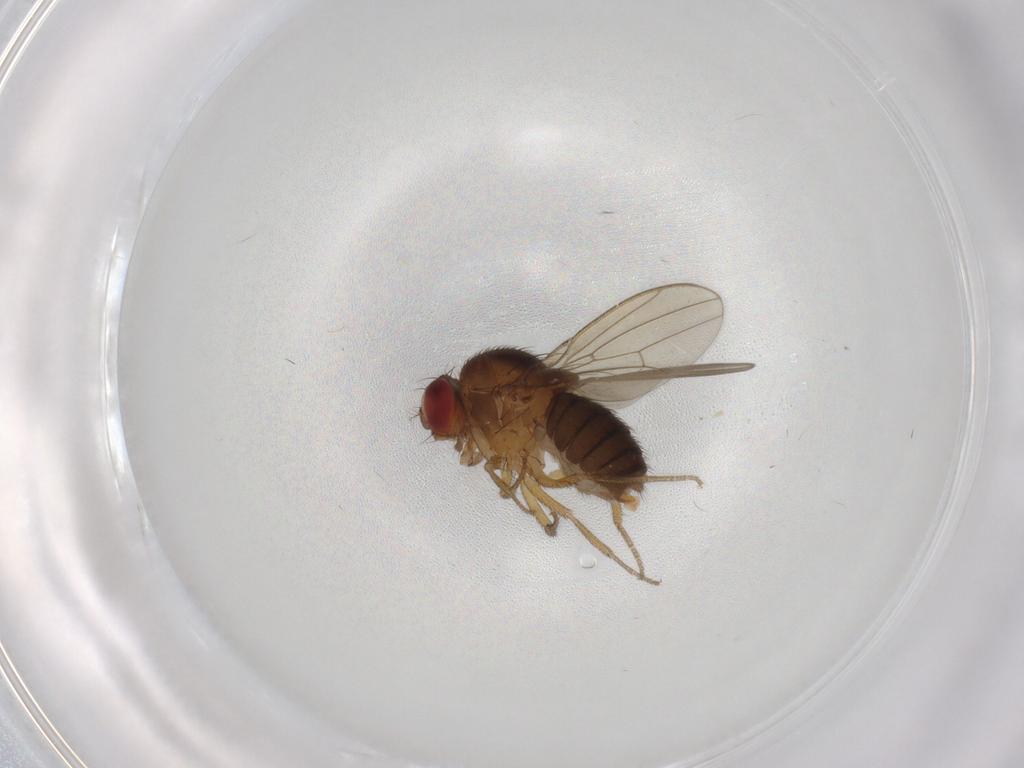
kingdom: Animalia
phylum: Arthropoda
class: Insecta
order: Diptera
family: Drosophilidae
